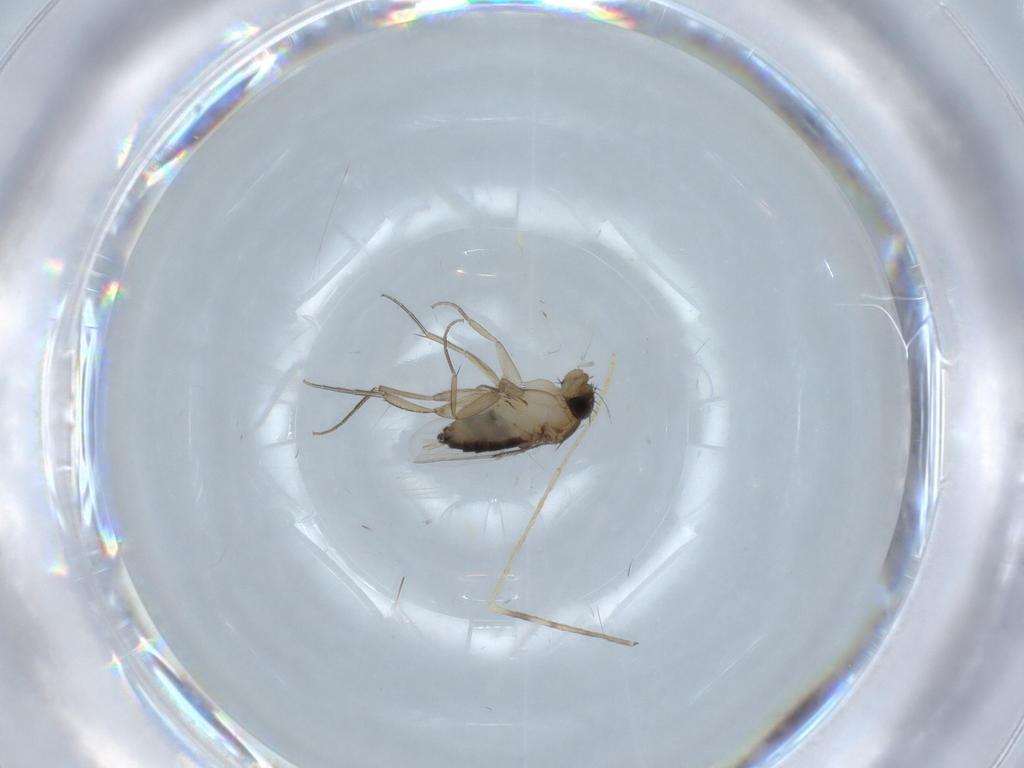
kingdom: Animalia
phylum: Arthropoda
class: Insecta
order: Diptera
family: Limoniidae
